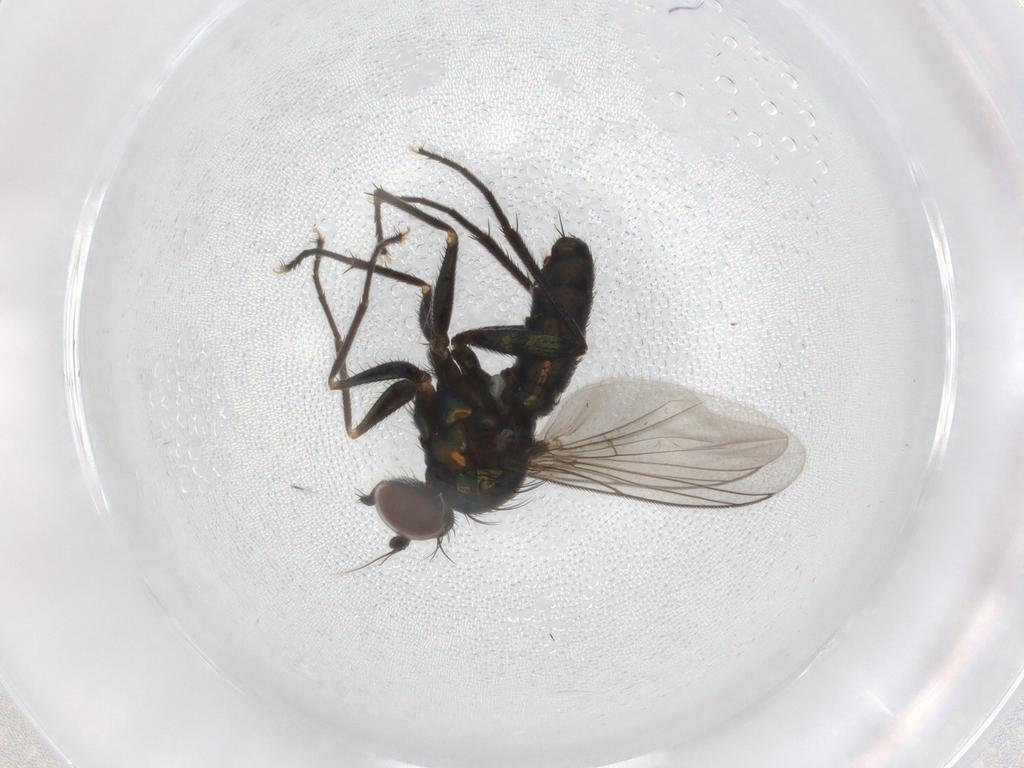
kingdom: Animalia
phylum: Arthropoda
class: Insecta
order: Diptera
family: Dolichopodidae
